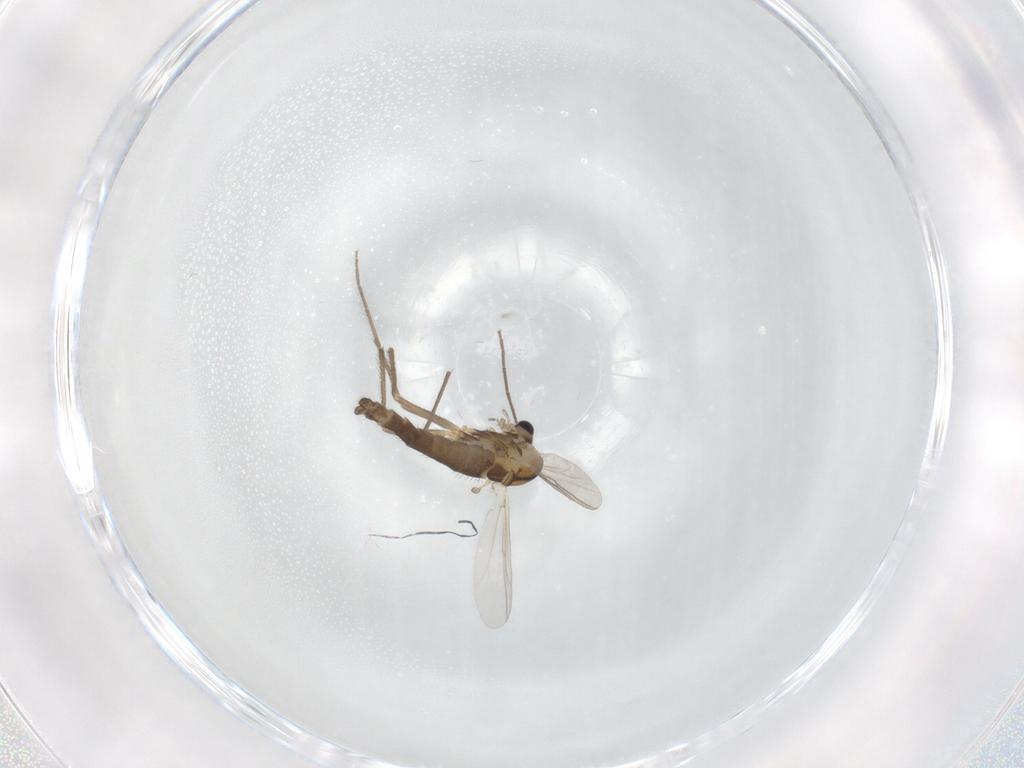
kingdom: Animalia
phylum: Arthropoda
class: Insecta
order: Diptera
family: Chironomidae
